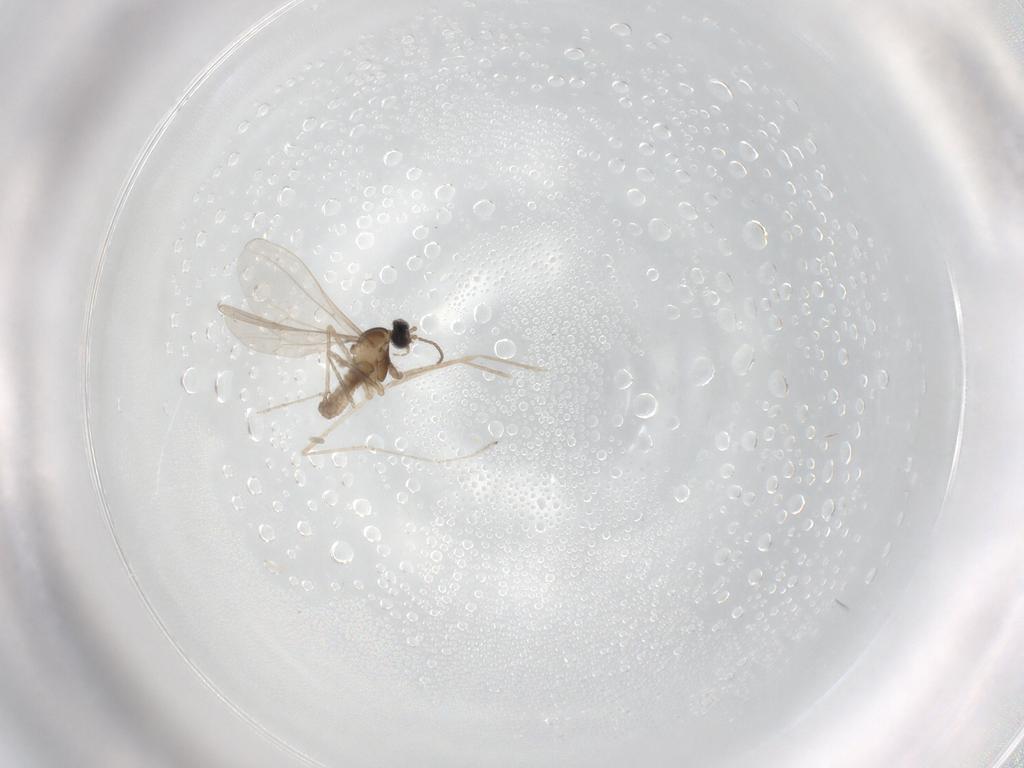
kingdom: Animalia
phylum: Arthropoda
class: Insecta
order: Diptera
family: Cecidomyiidae
